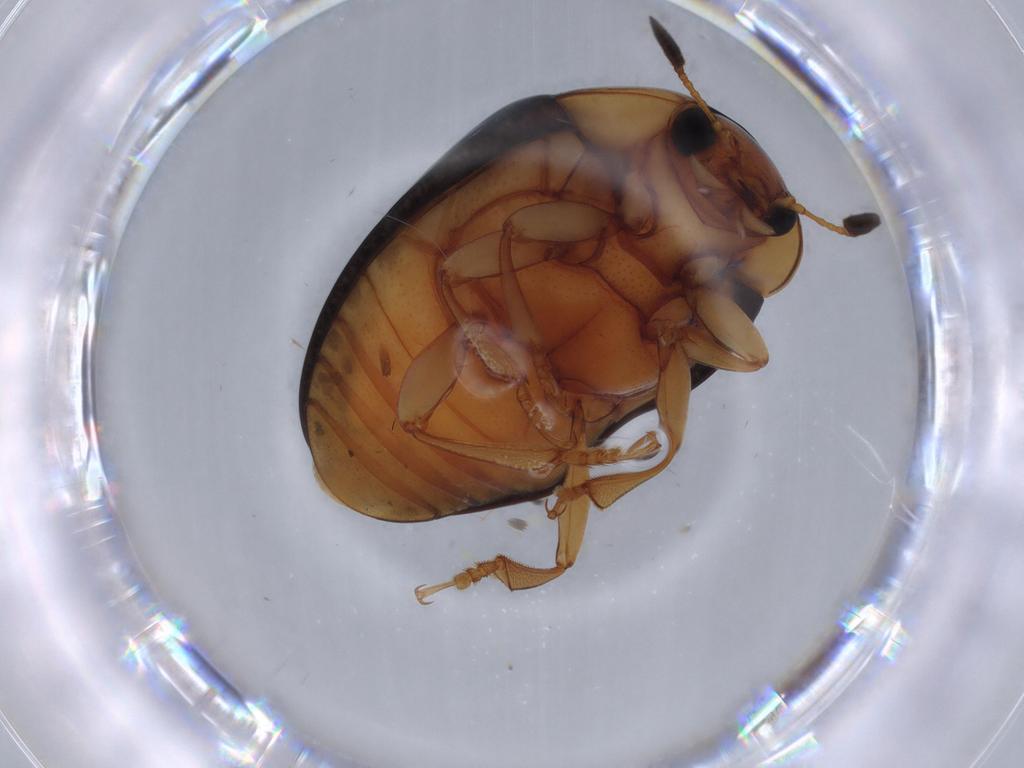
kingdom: Animalia
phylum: Arthropoda
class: Insecta
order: Coleoptera
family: Erotylidae
